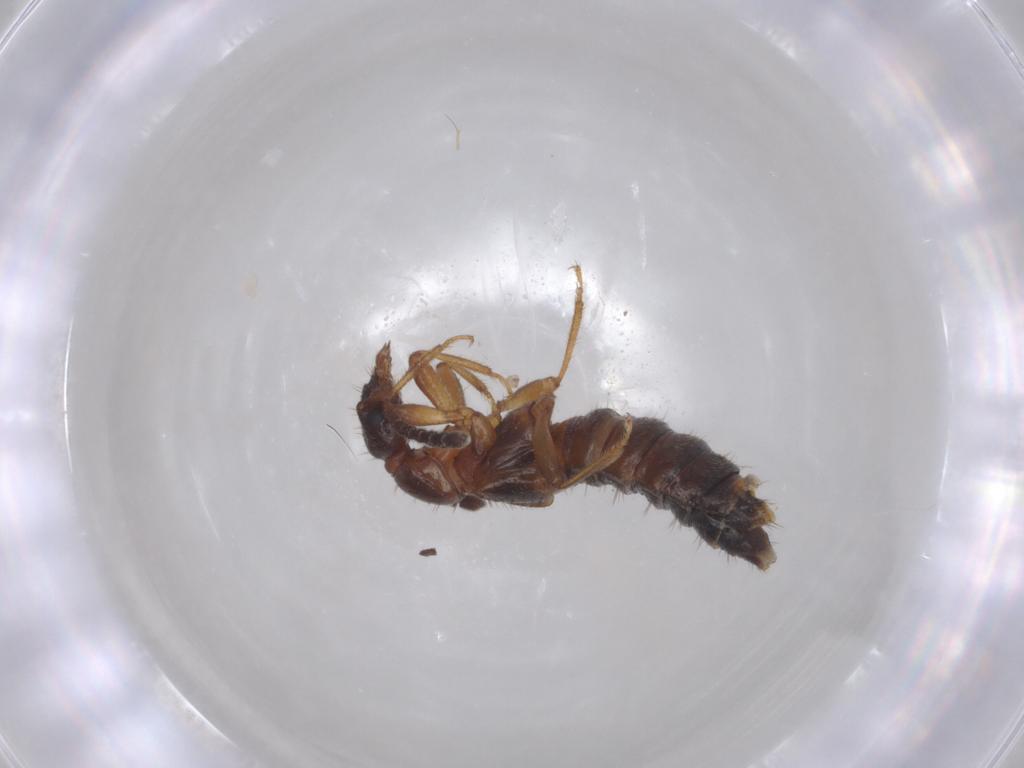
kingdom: Animalia
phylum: Arthropoda
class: Insecta
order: Coleoptera
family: Staphylinidae
